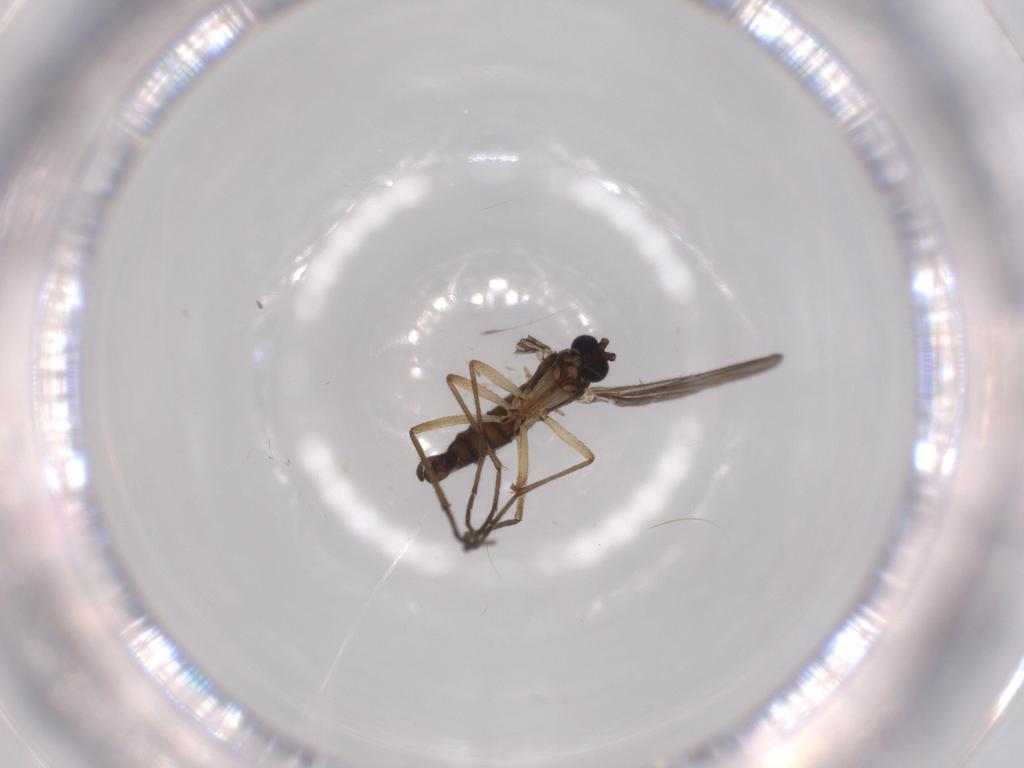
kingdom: Animalia
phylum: Arthropoda
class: Insecta
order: Diptera
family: Sciaridae
